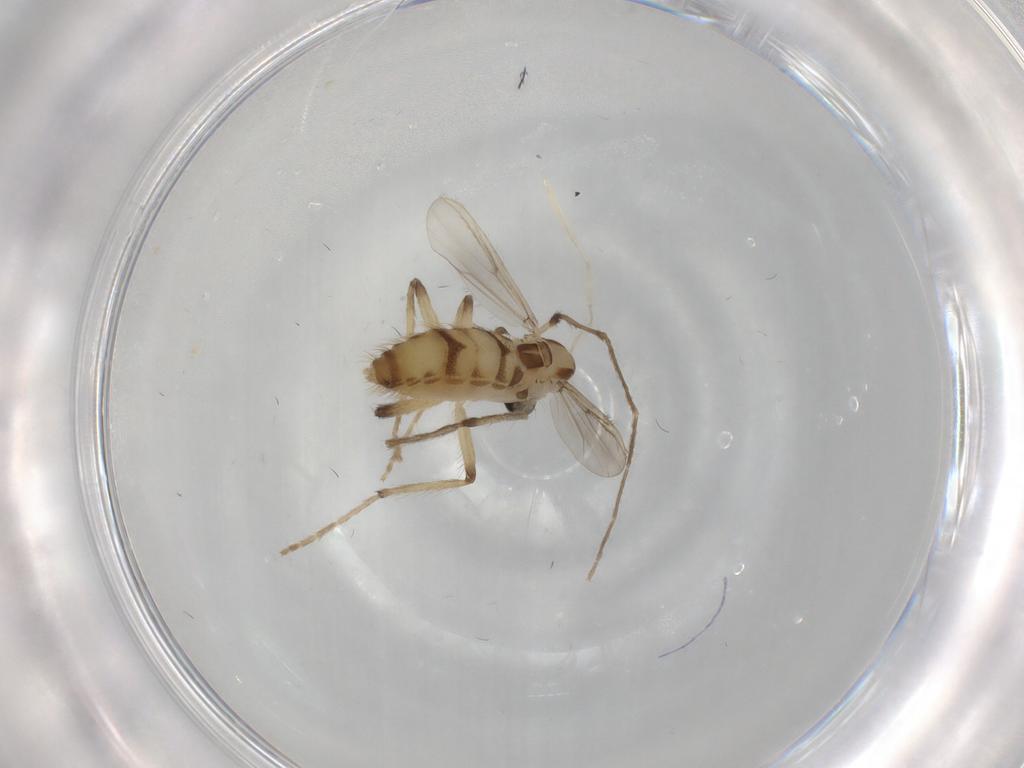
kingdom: Animalia
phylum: Arthropoda
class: Insecta
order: Diptera
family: Chironomidae
